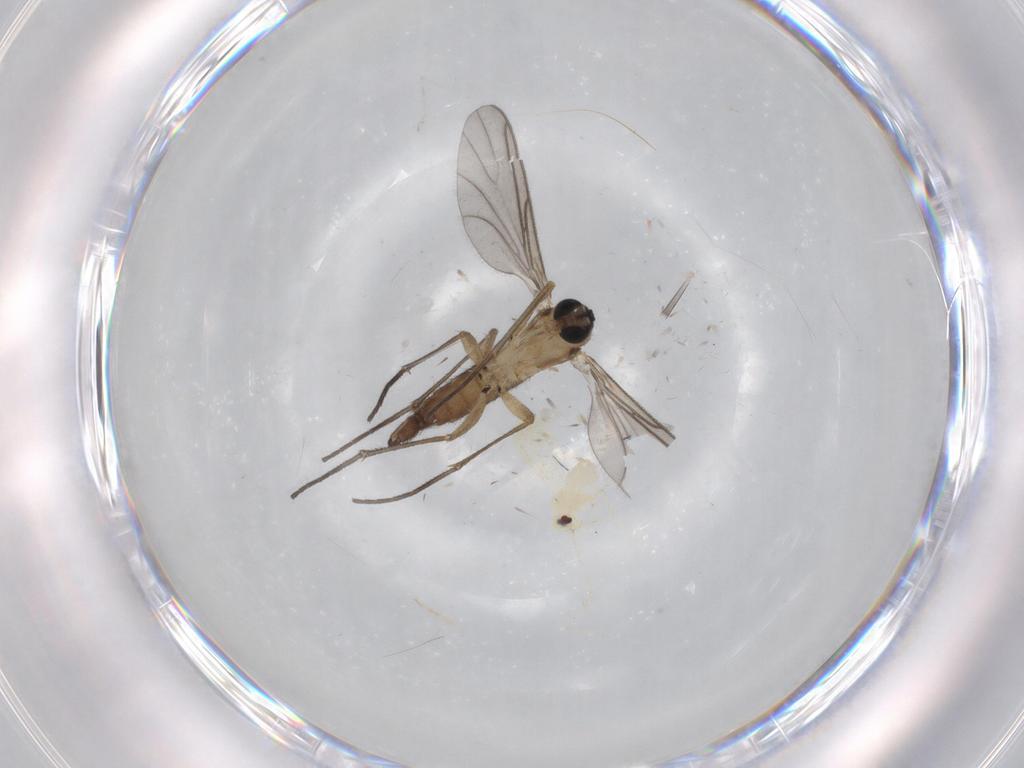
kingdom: Animalia
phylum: Arthropoda
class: Insecta
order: Hemiptera
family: Aleyrodidae
